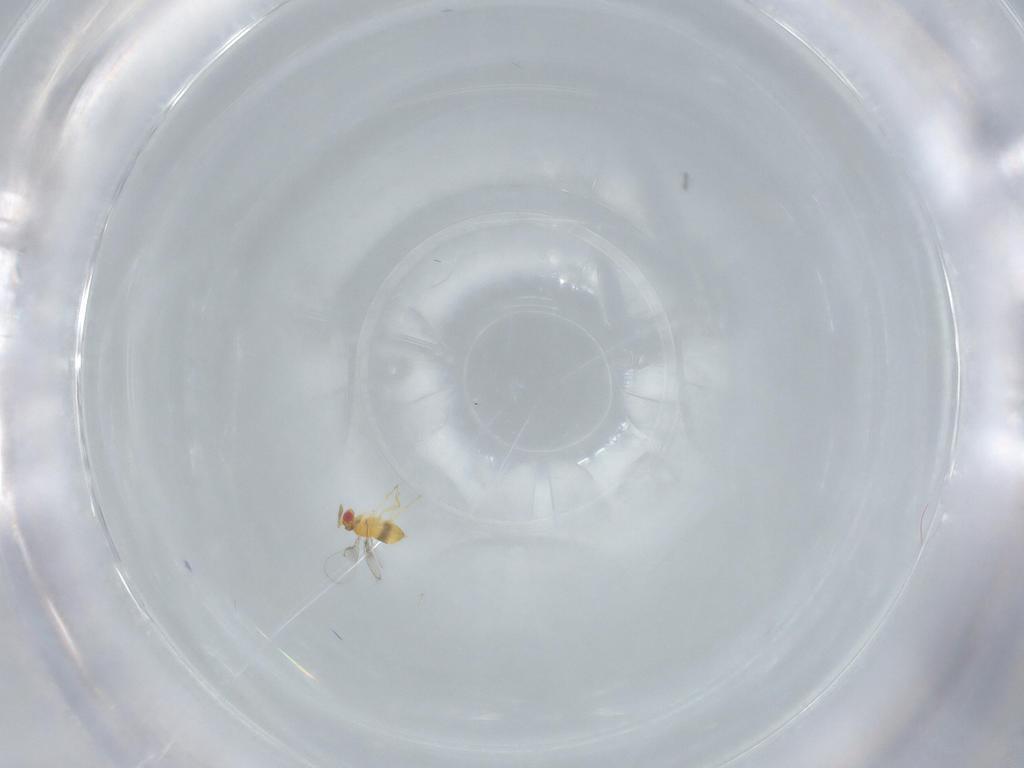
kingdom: Animalia
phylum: Arthropoda
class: Insecta
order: Hymenoptera
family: Trichogrammatidae
